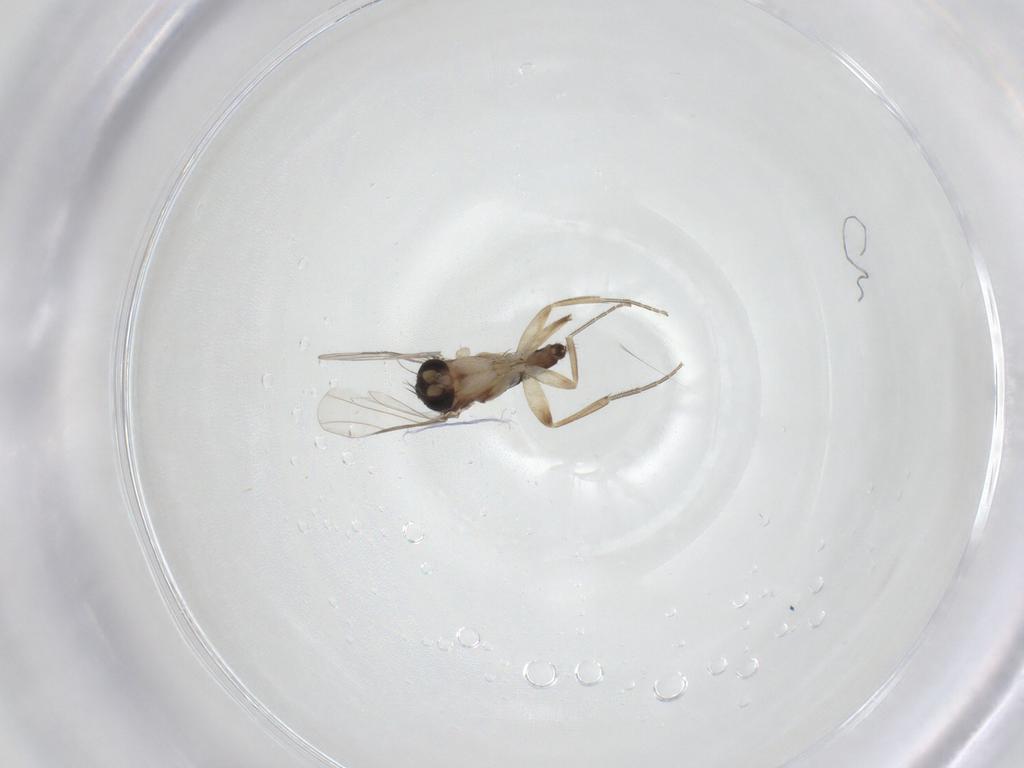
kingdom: Animalia
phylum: Arthropoda
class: Insecta
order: Diptera
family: Phoridae
